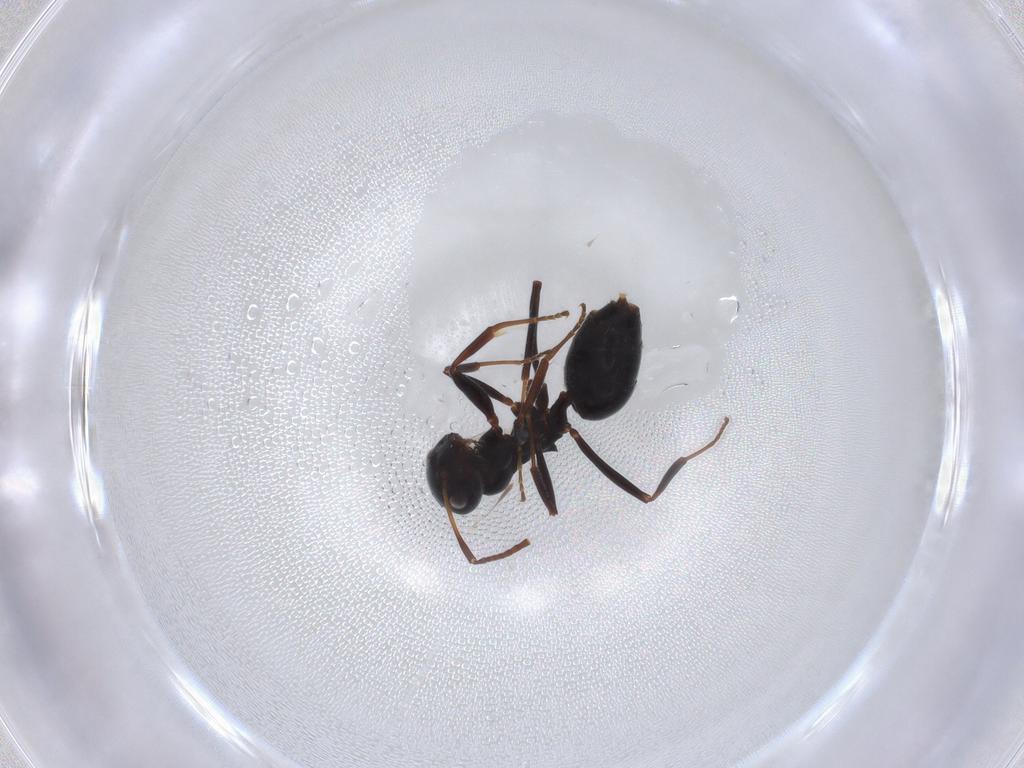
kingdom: Animalia
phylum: Arthropoda
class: Insecta
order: Hymenoptera
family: Formicidae
